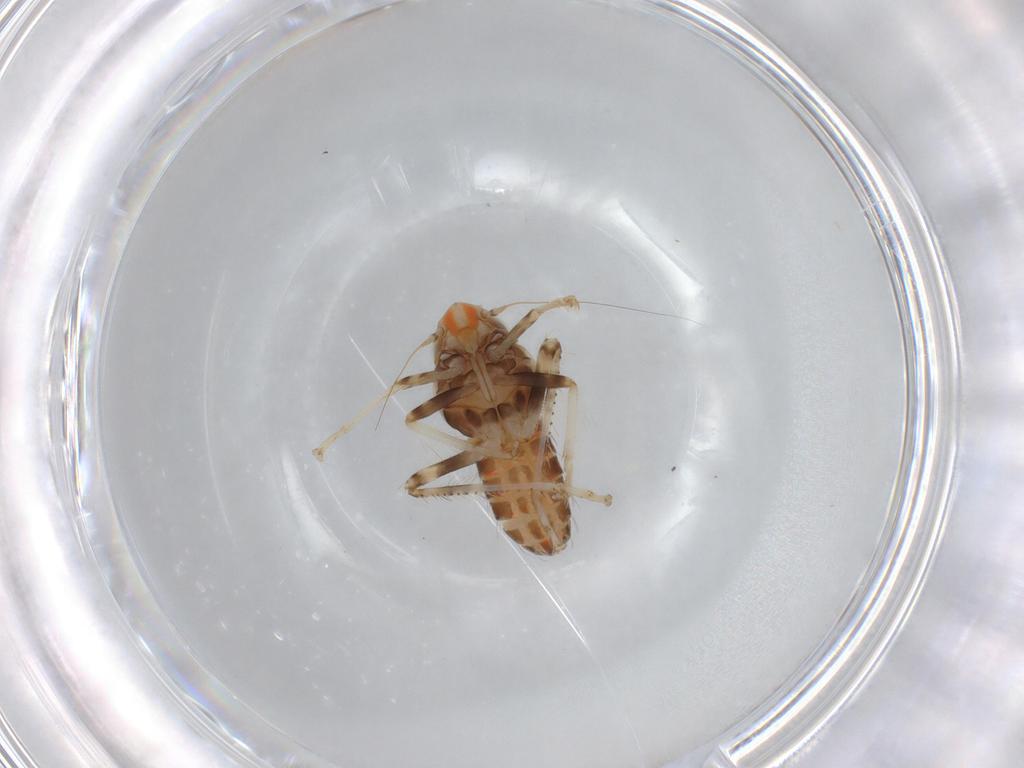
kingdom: Animalia
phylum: Arthropoda
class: Insecta
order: Hemiptera
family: Cicadellidae
